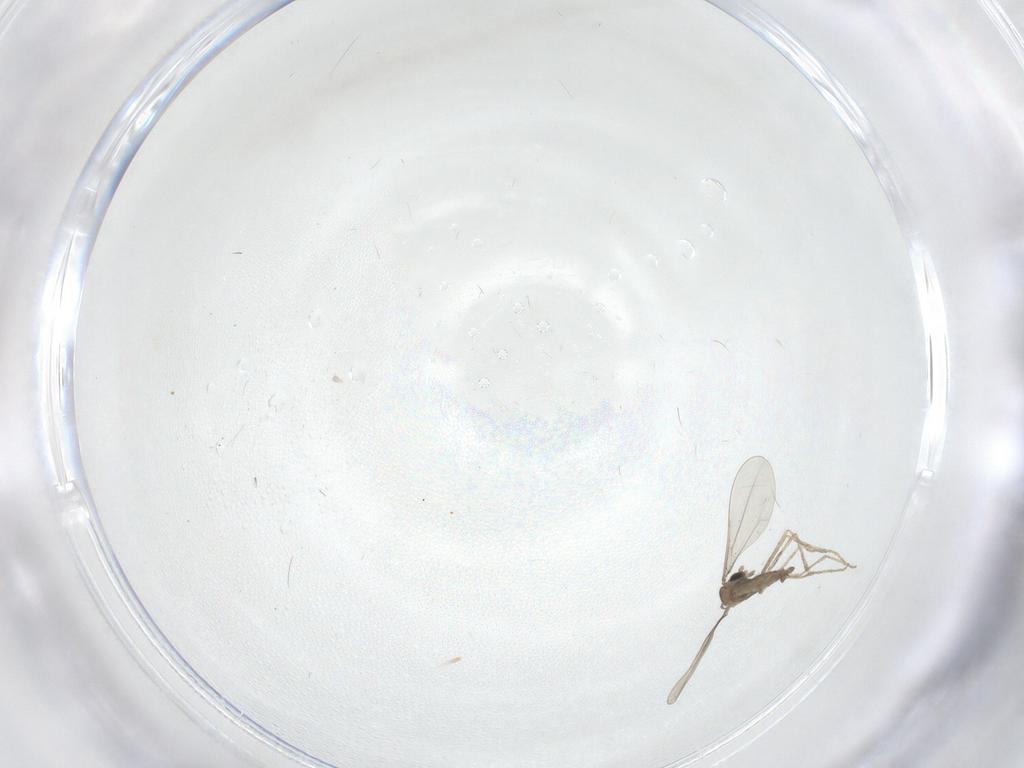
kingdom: Animalia
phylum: Arthropoda
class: Insecta
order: Diptera
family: Cecidomyiidae
